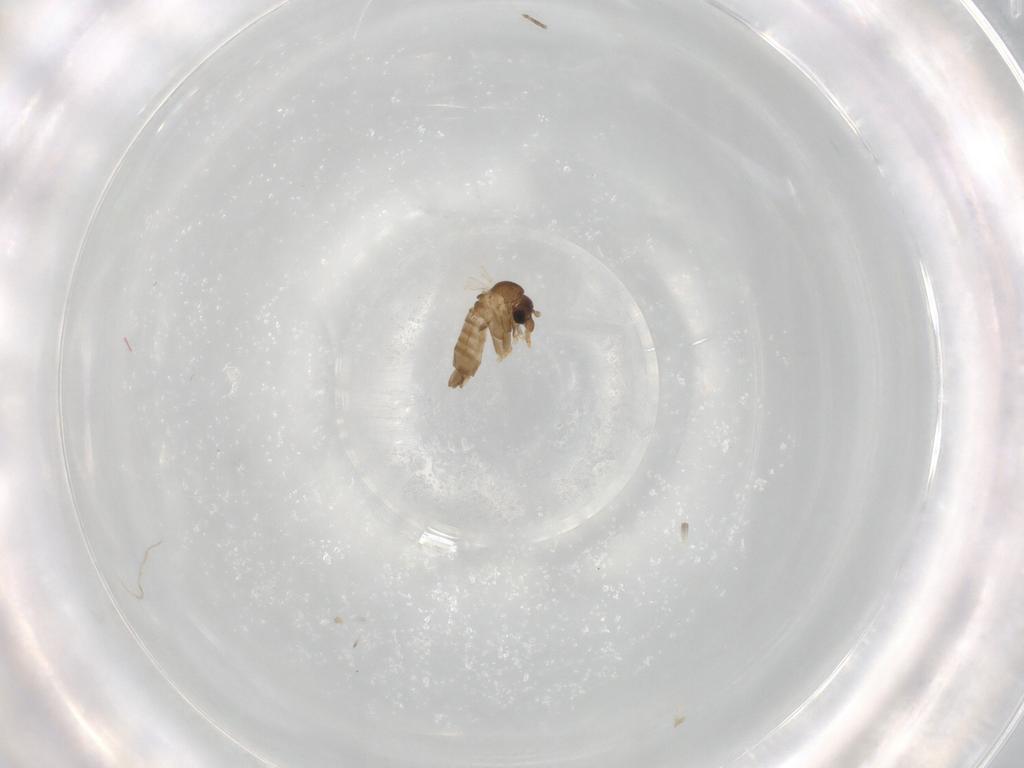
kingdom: Animalia
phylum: Arthropoda
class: Insecta
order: Diptera
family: Psychodidae
